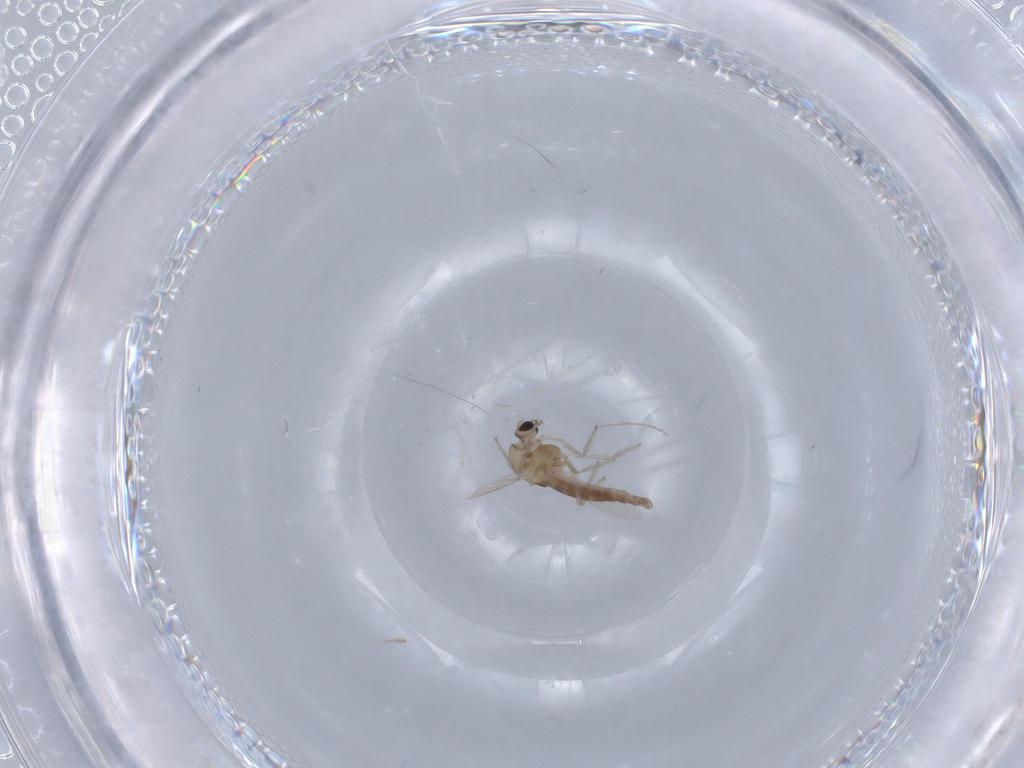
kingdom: Animalia
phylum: Arthropoda
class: Insecta
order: Diptera
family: Chironomidae
